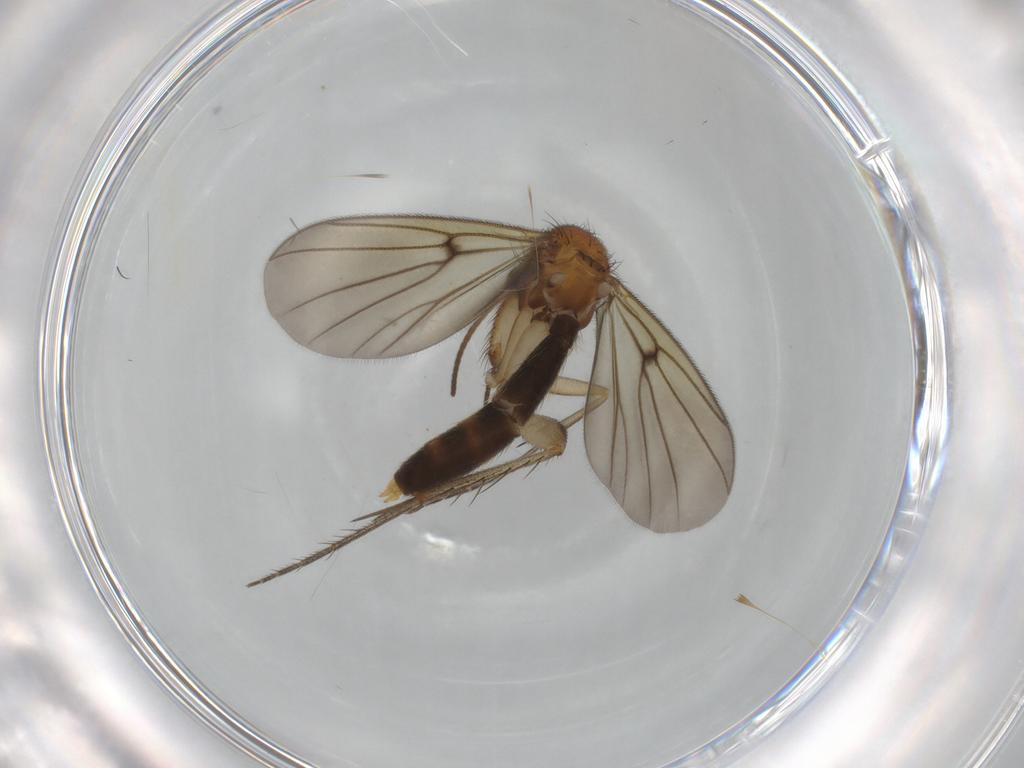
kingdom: Animalia
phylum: Arthropoda
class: Insecta
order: Diptera
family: Mycetophilidae
